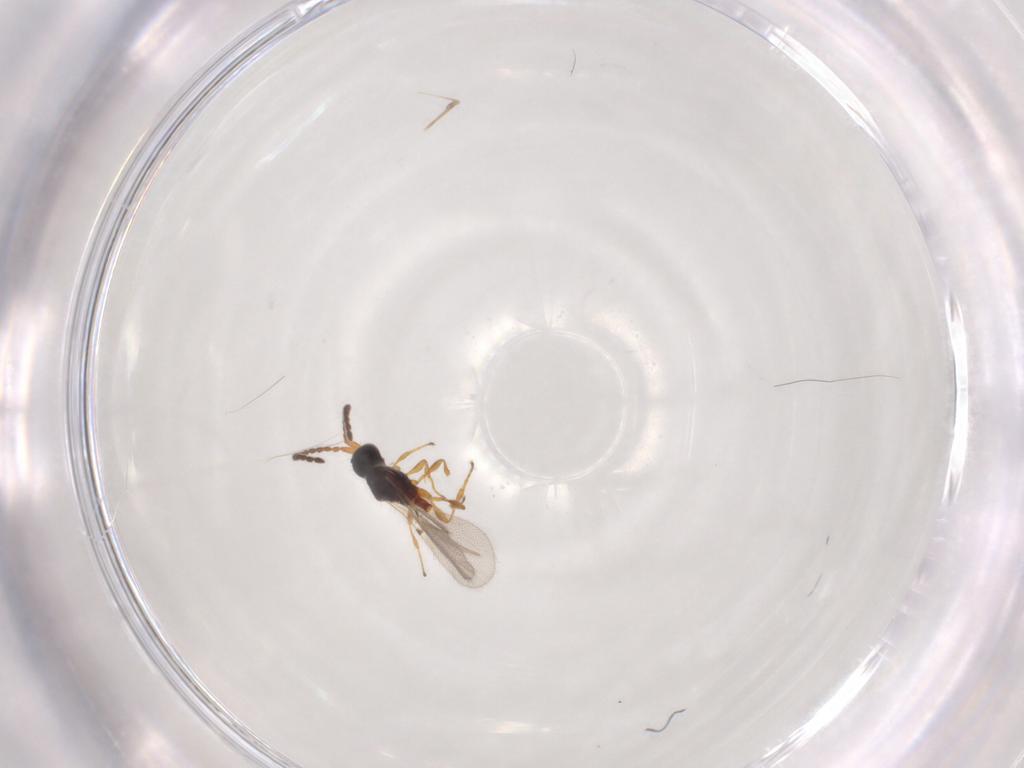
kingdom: Animalia
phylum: Arthropoda
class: Insecta
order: Hymenoptera
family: Diapriidae
